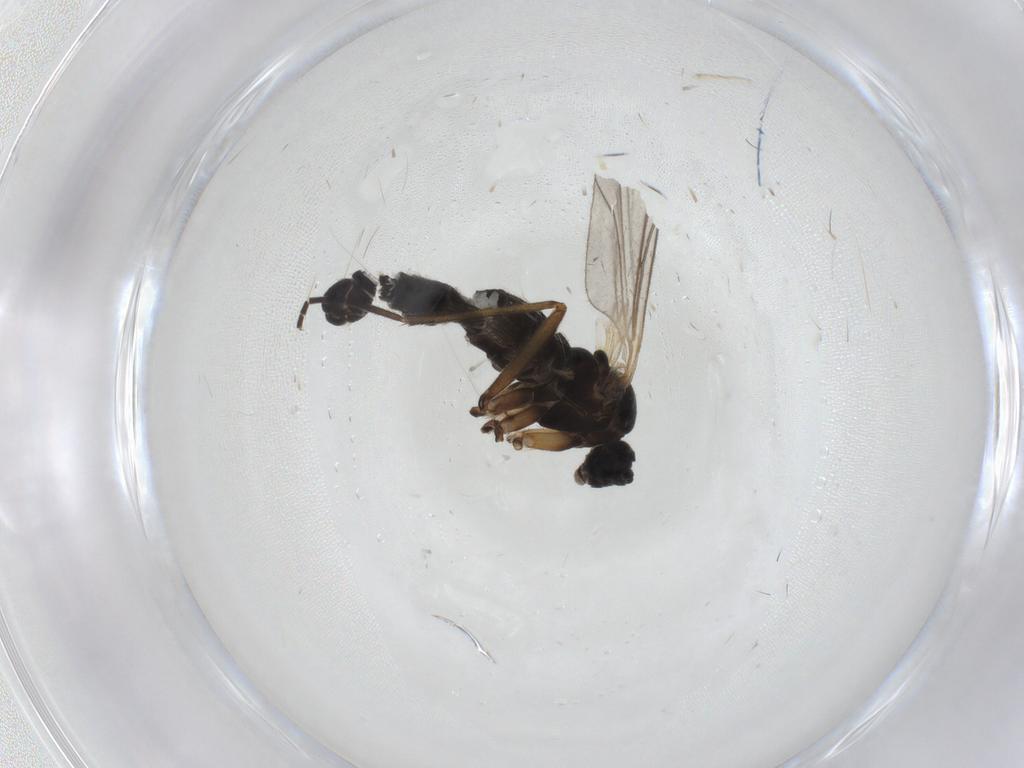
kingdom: Animalia
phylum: Arthropoda
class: Insecta
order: Diptera
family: Sciaridae
